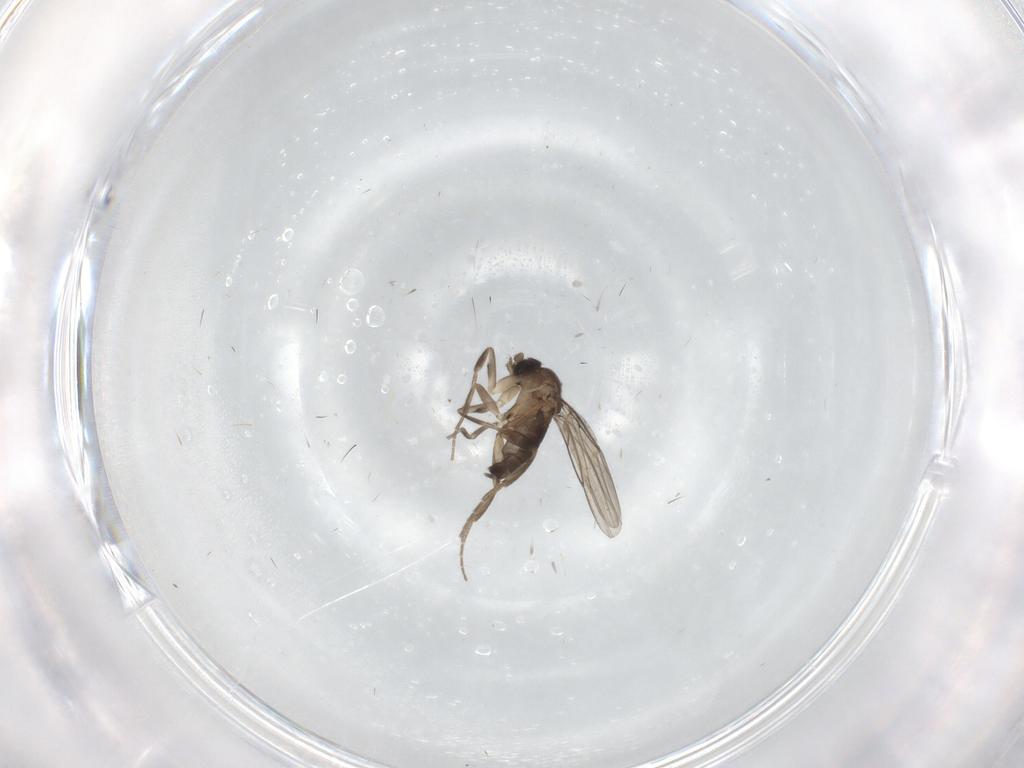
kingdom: Animalia
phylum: Arthropoda
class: Insecta
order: Diptera
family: Phoridae
